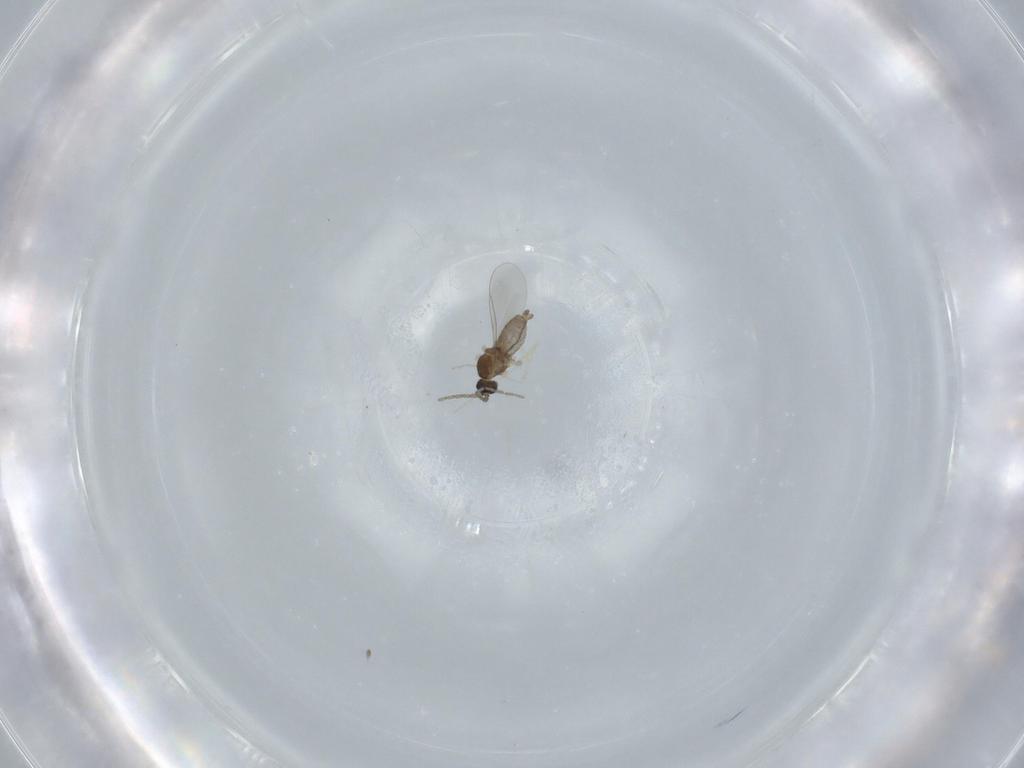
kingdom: Animalia
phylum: Arthropoda
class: Insecta
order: Diptera
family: Cecidomyiidae
